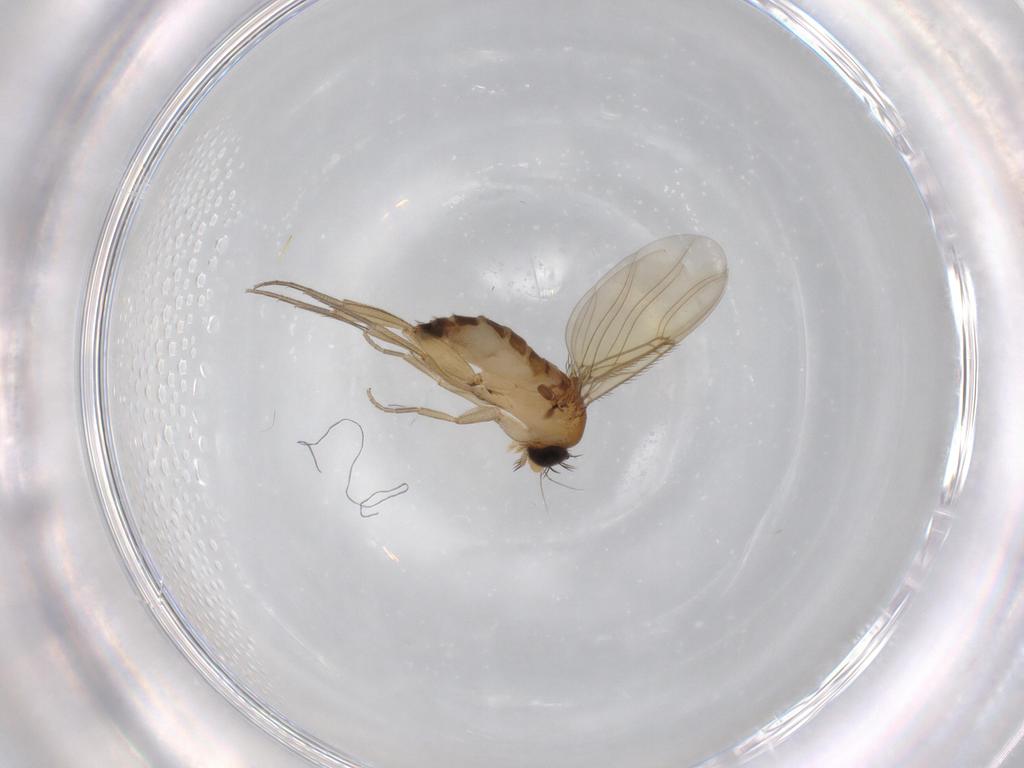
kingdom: Animalia
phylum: Arthropoda
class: Insecta
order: Diptera
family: Phoridae
